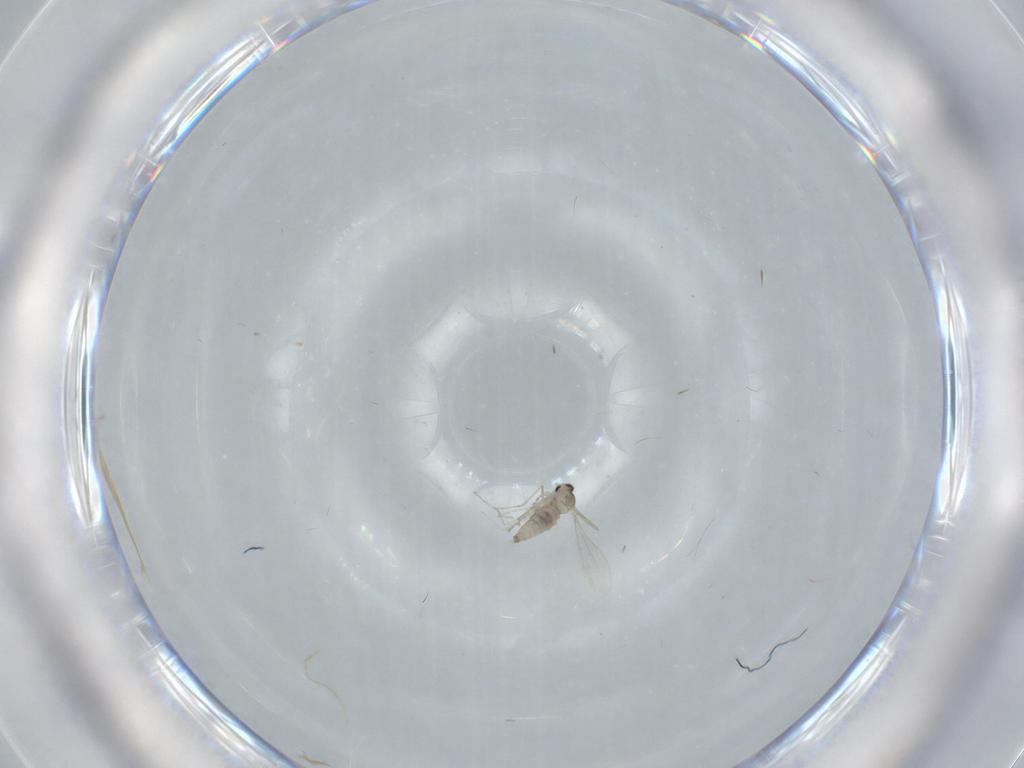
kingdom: Animalia
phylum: Arthropoda
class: Insecta
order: Diptera
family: Cecidomyiidae
